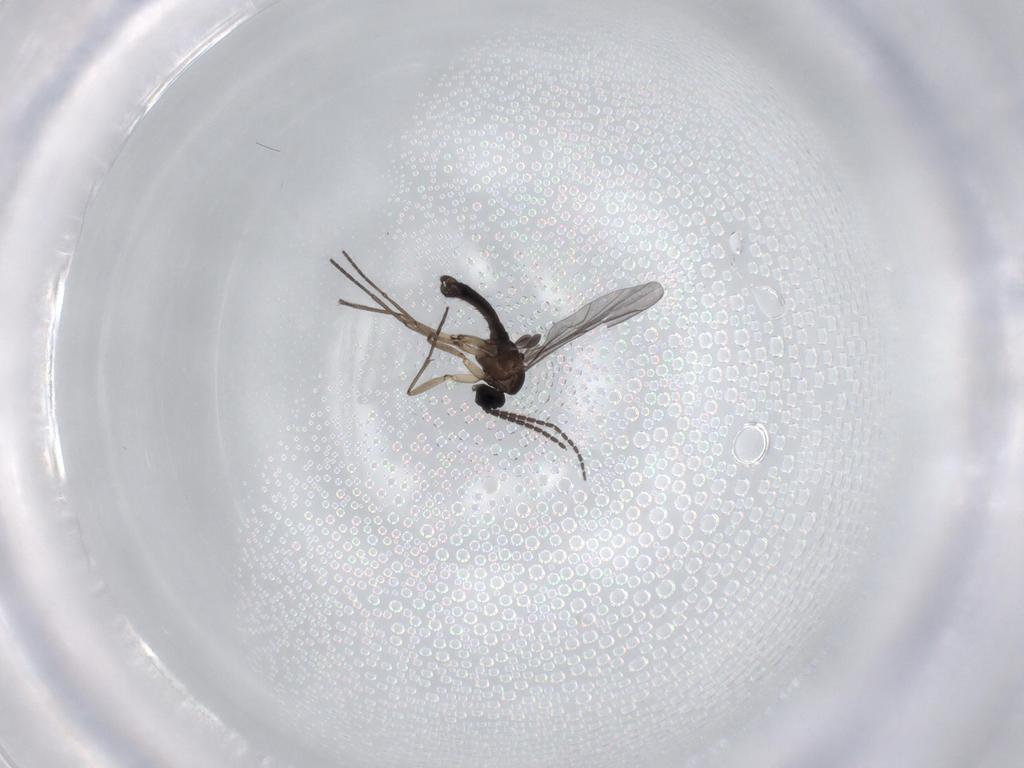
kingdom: Animalia
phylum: Arthropoda
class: Insecta
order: Diptera
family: Sciaridae
